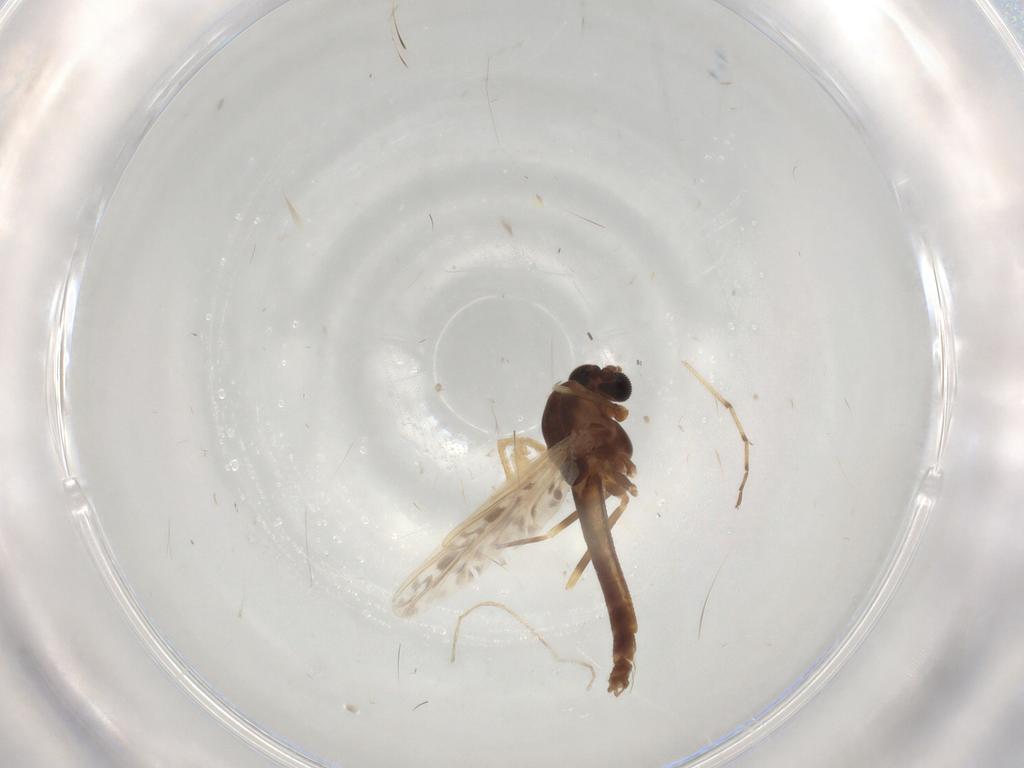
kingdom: Animalia
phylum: Arthropoda
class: Insecta
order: Diptera
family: Chironomidae
